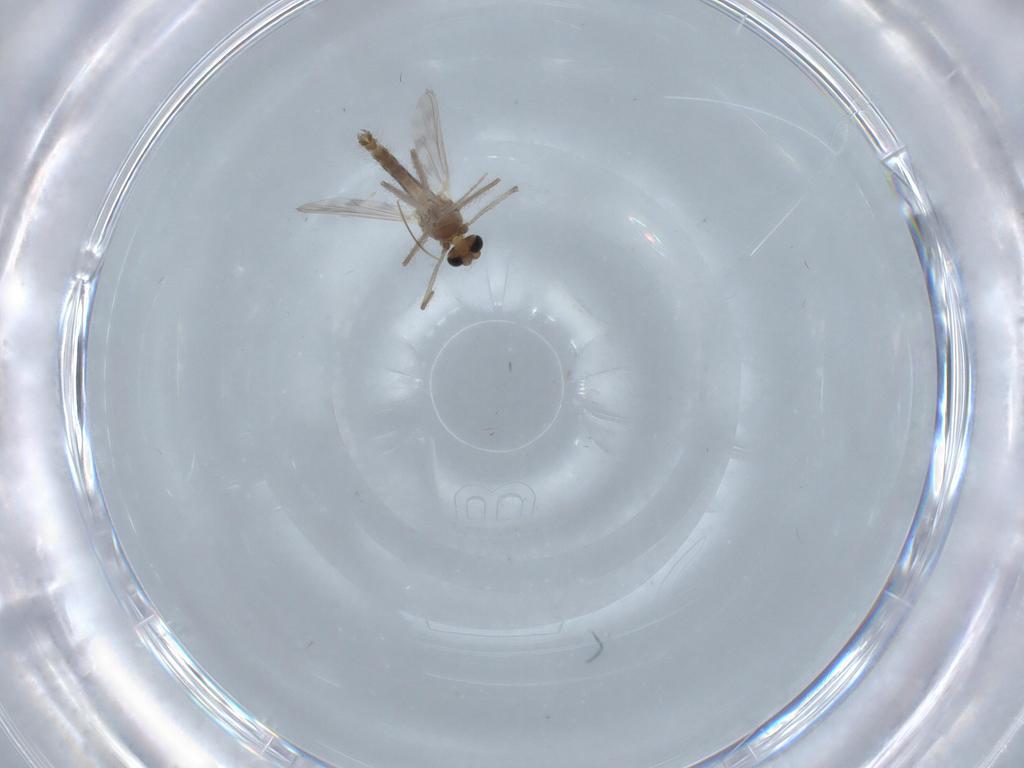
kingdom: Animalia
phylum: Arthropoda
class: Insecta
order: Diptera
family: Chironomidae
